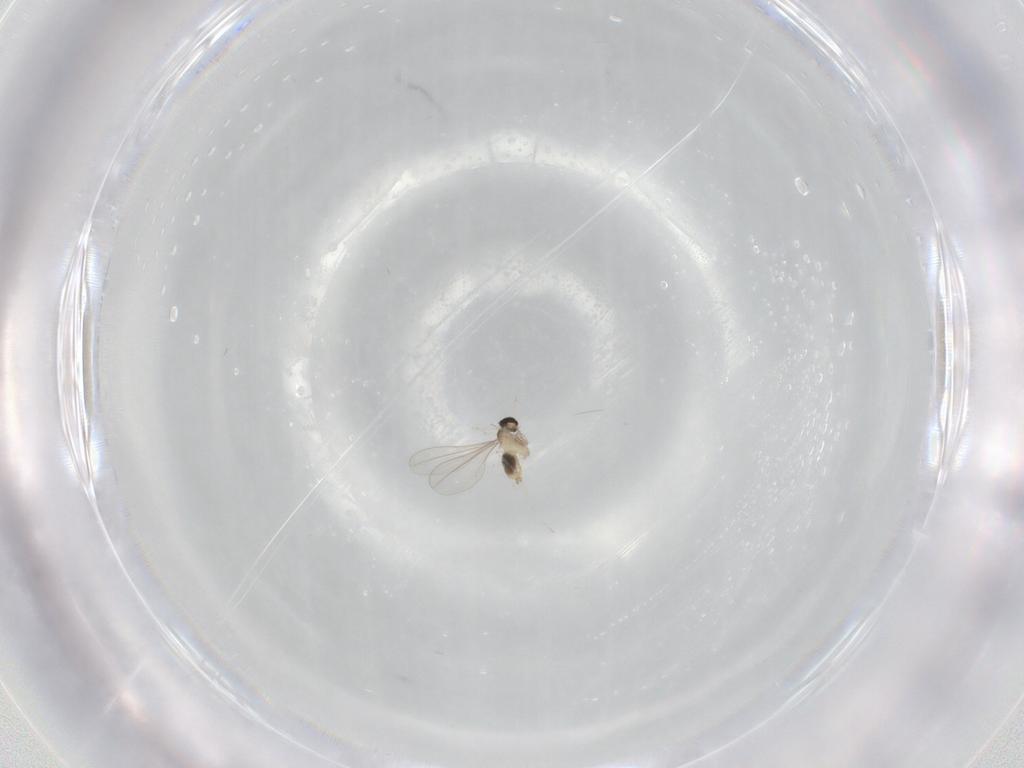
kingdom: Animalia
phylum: Arthropoda
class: Insecta
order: Diptera
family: Cecidomyiidae
